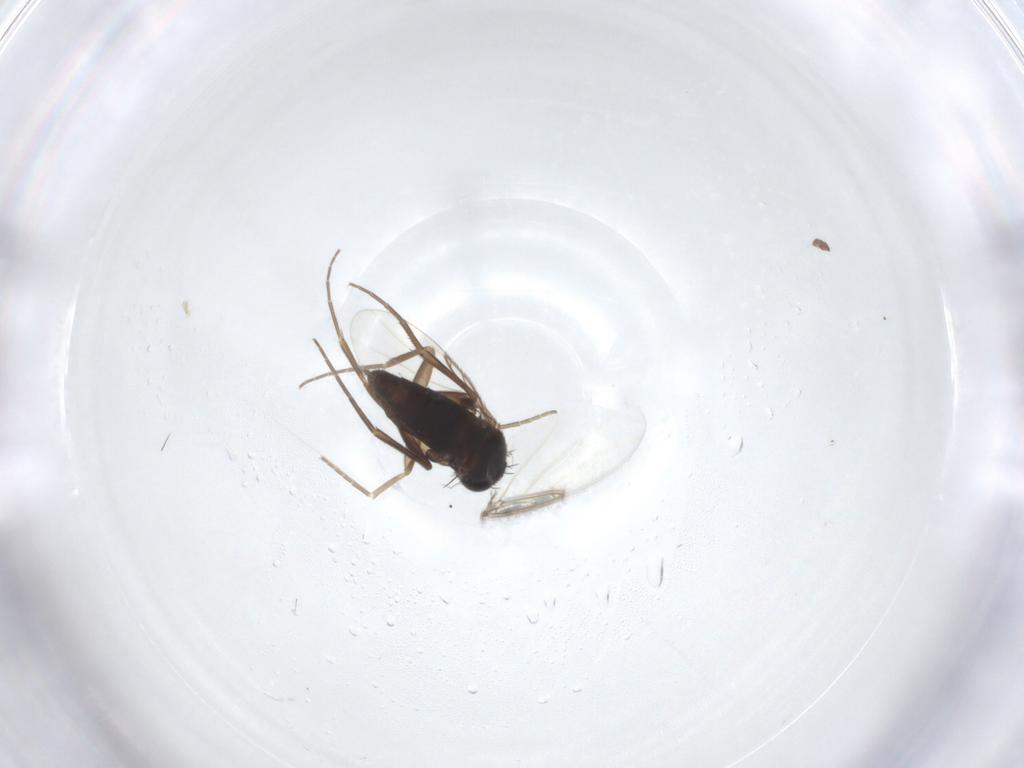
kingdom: Animalia
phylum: Arthropoda
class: Insecta
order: Diptera
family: Phoridae
